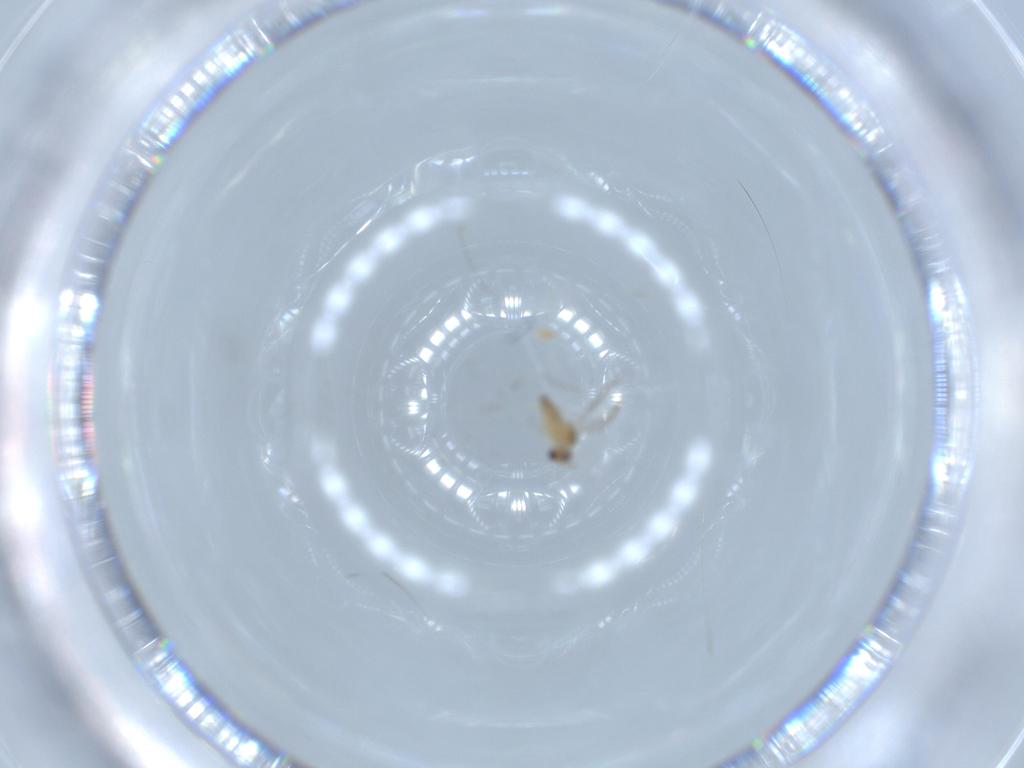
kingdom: Animalia
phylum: Arthropoda
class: Insecta
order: Diptera
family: Cecidomyiidae
